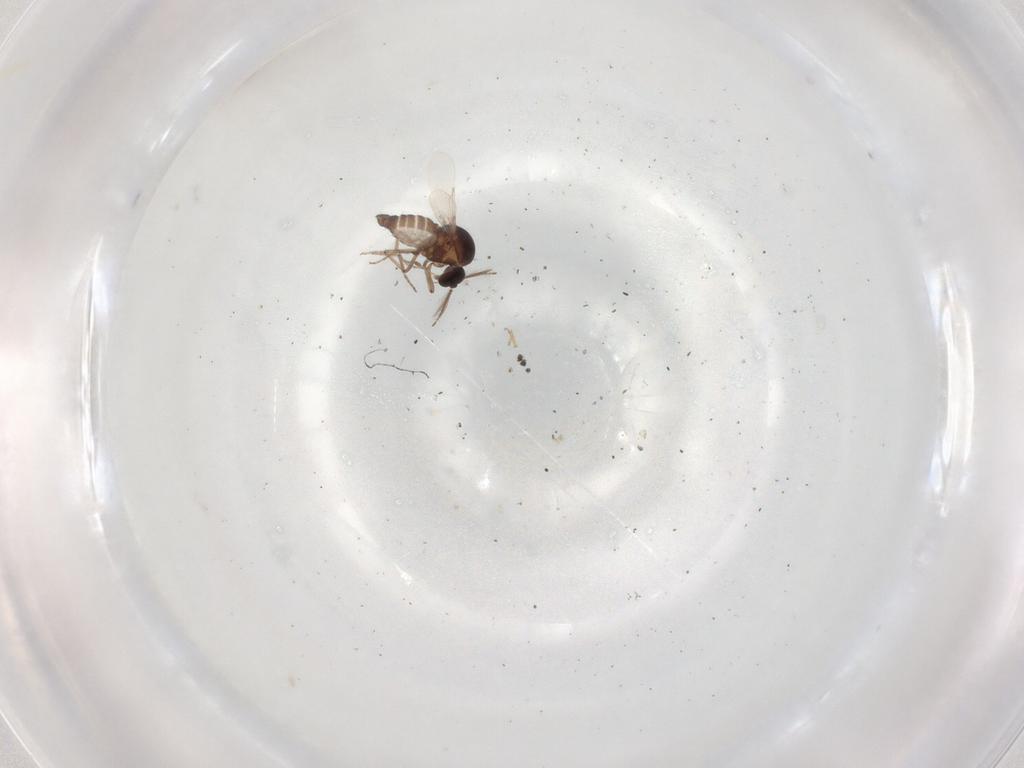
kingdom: Animalia
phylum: Arthropoda
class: Insecta
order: Diptera
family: Ceratopogonidae
